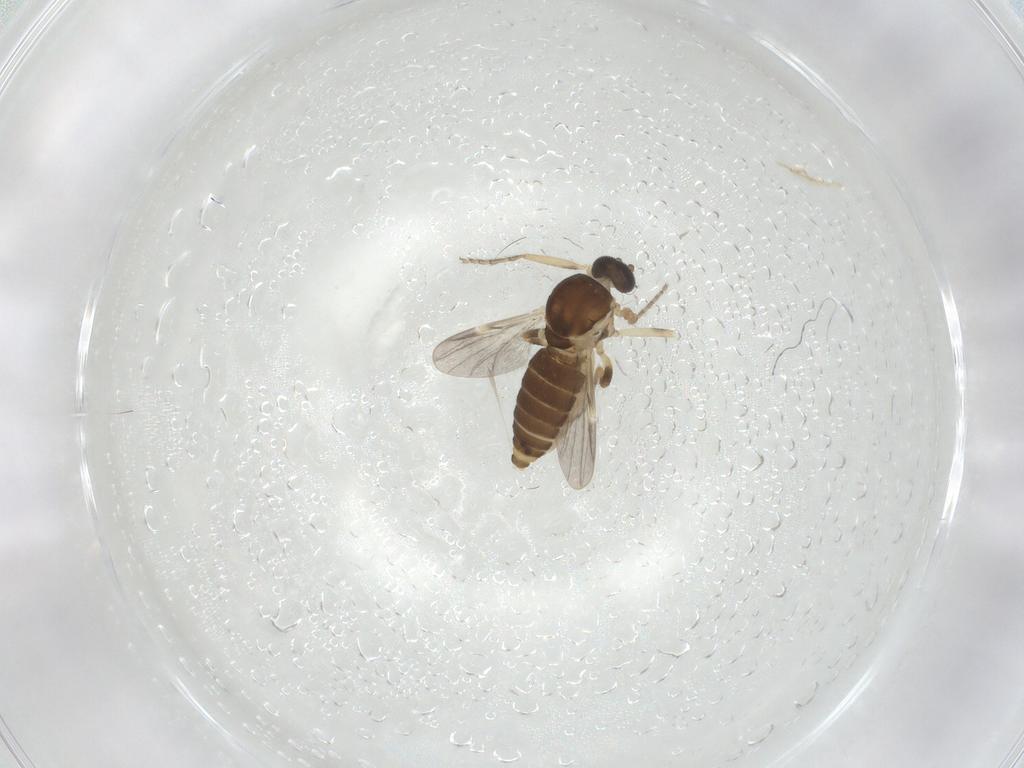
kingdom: Animalia
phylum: Arthropoda
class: Insecta
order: Diptera
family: Ceratopogonidae
